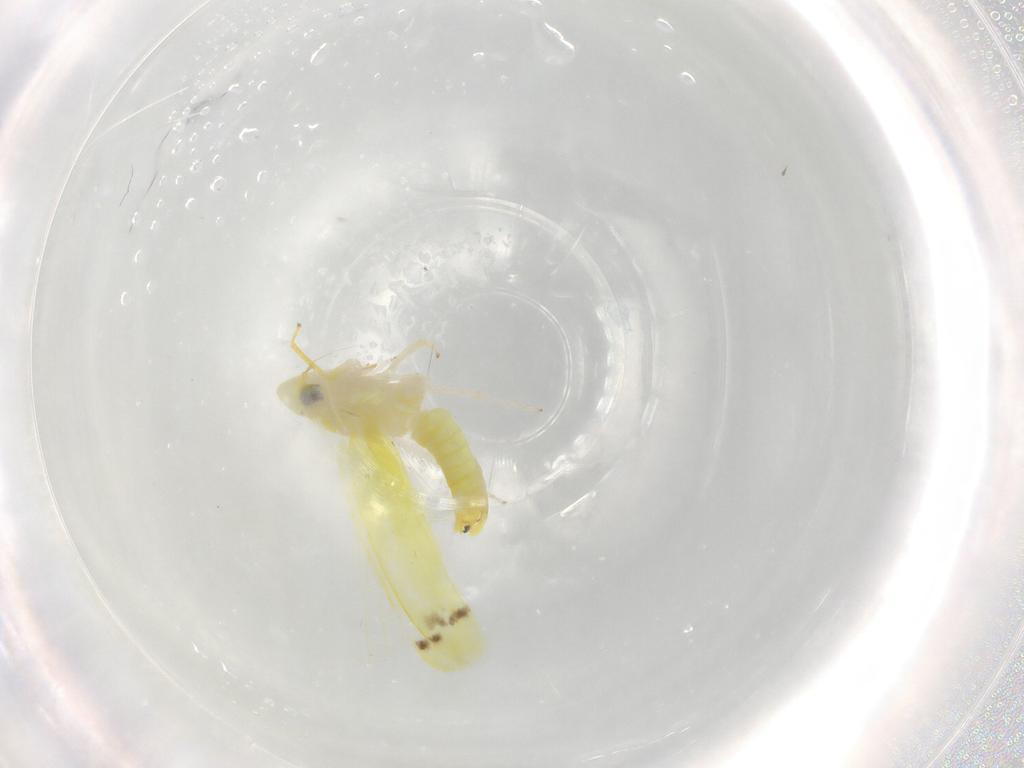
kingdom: Animalia
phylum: Arthropoda
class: Insecta
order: Hemiptera
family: Cicadellidae
